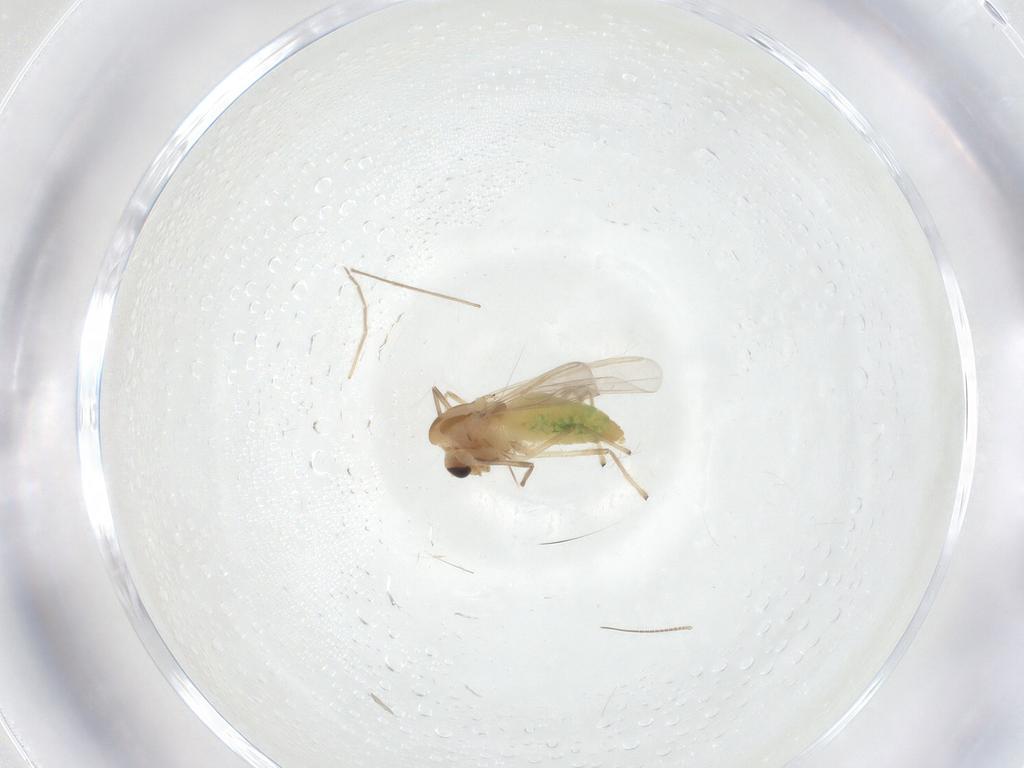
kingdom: Animalia
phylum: Arthropoda
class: Insecta
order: Diptera
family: Chironomidae
